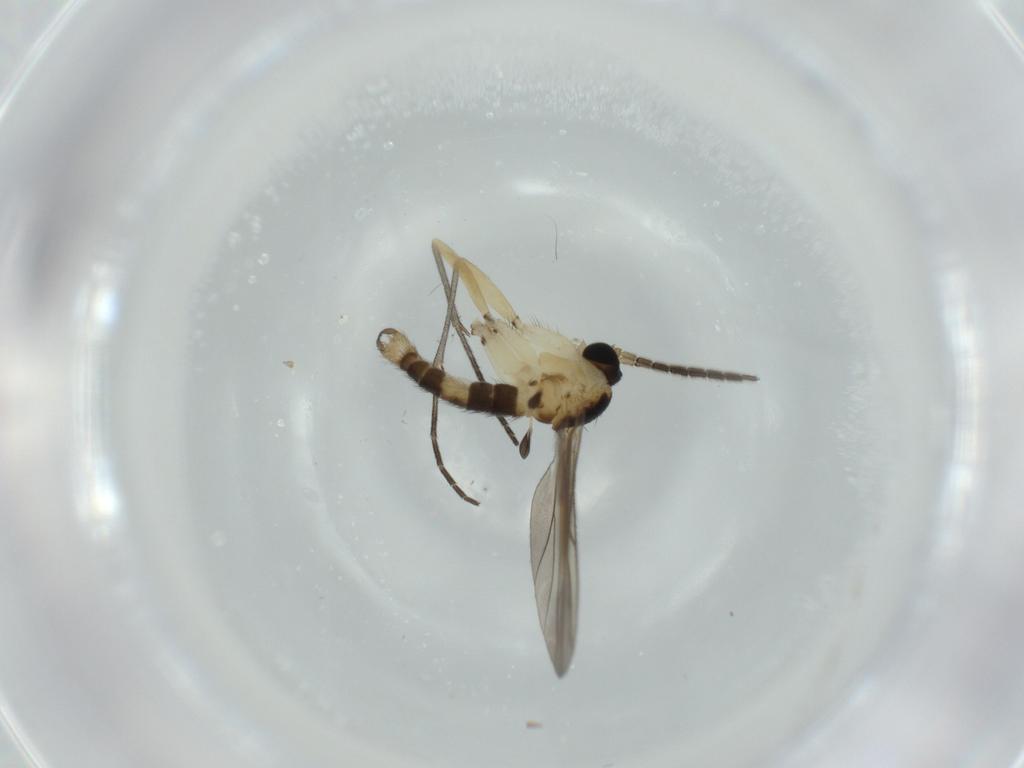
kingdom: Animalia
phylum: Arthropoda
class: Insecta
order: Diptera
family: Sciaridae
